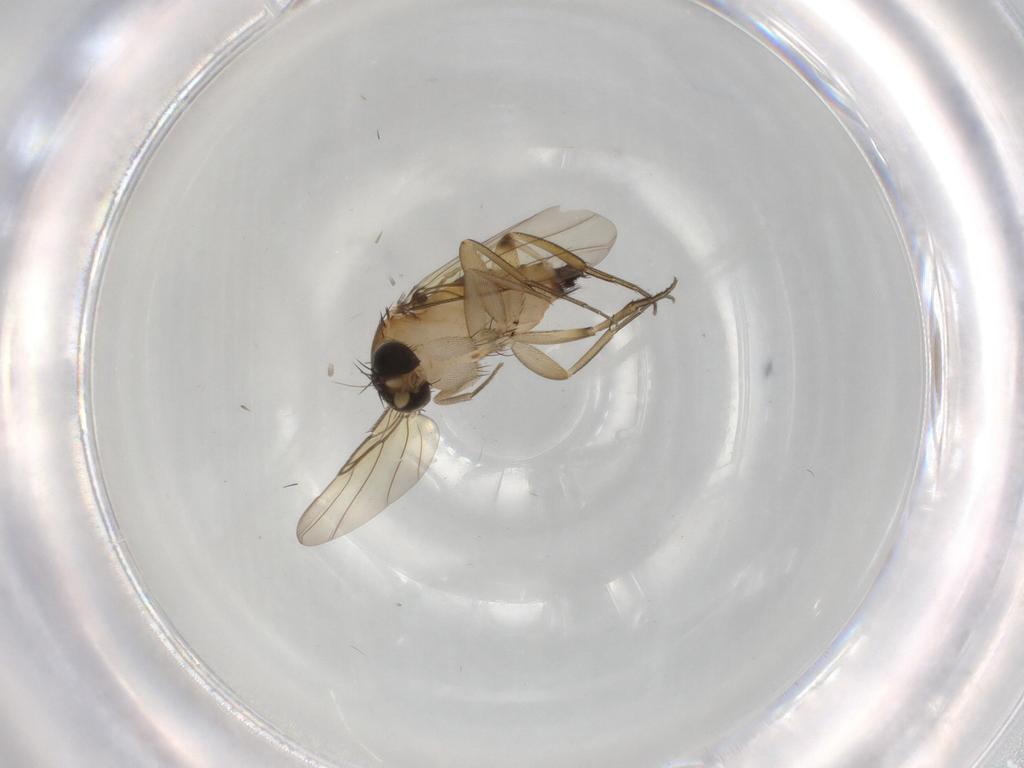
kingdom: Animalia
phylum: Arthropoda
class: Insecta
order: Diptera
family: Phoridae
